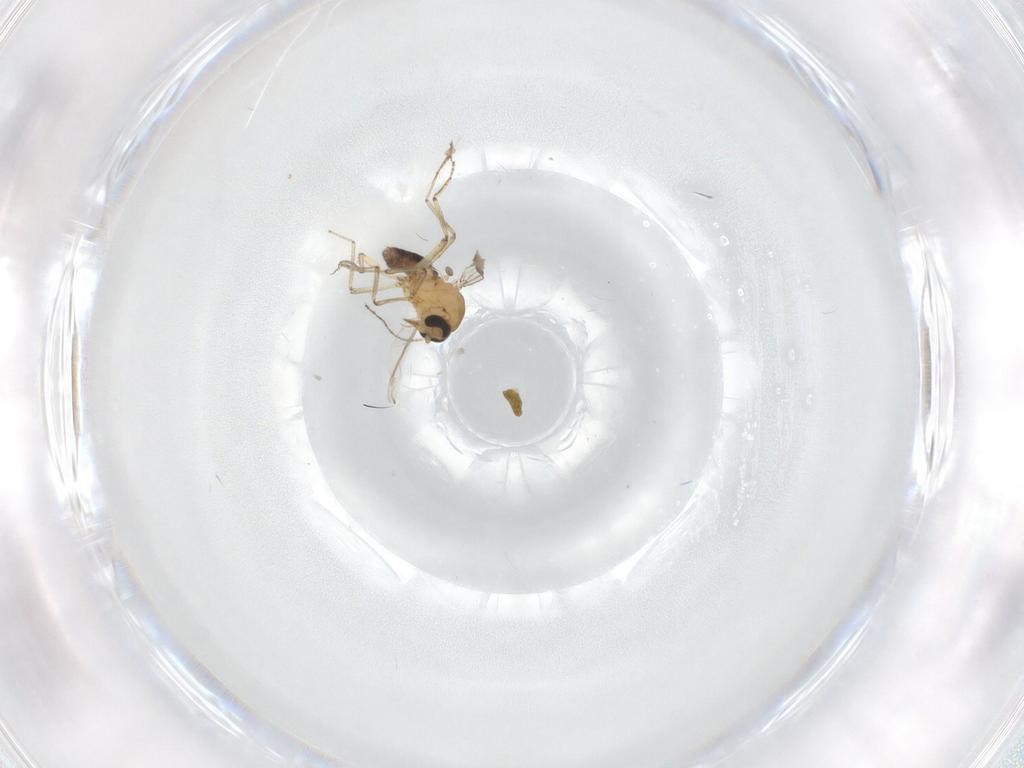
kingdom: Animalia
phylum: Arthropoda
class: Insecta
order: Diptera
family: Ceratopogonidae
